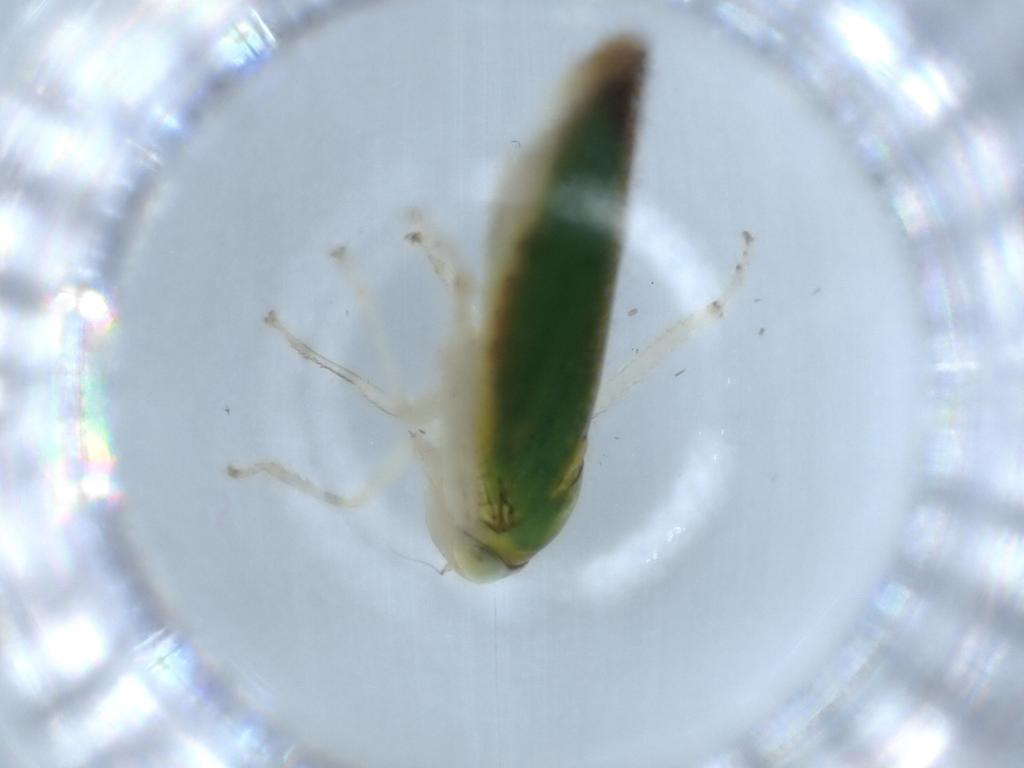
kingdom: Animalia
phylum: Arthropoda
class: Insecta
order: Hemiptera
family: Cicadellidae
